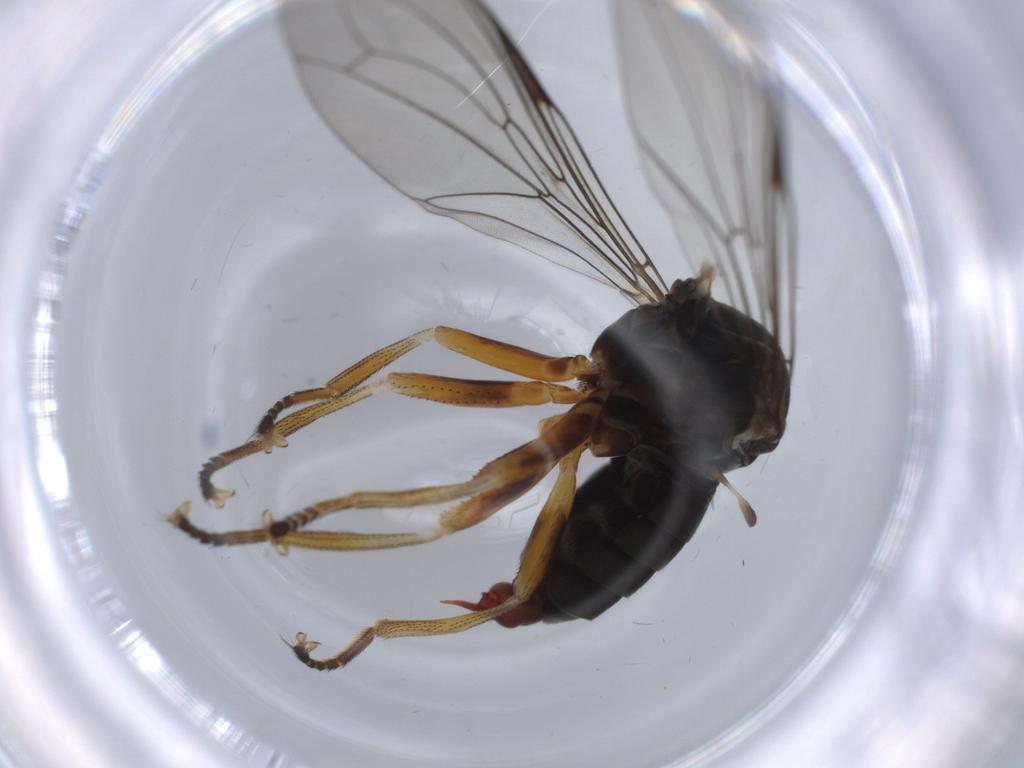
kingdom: Animalia
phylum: Arthropoda
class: Insecta
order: Diptera
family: Pipunculidae
